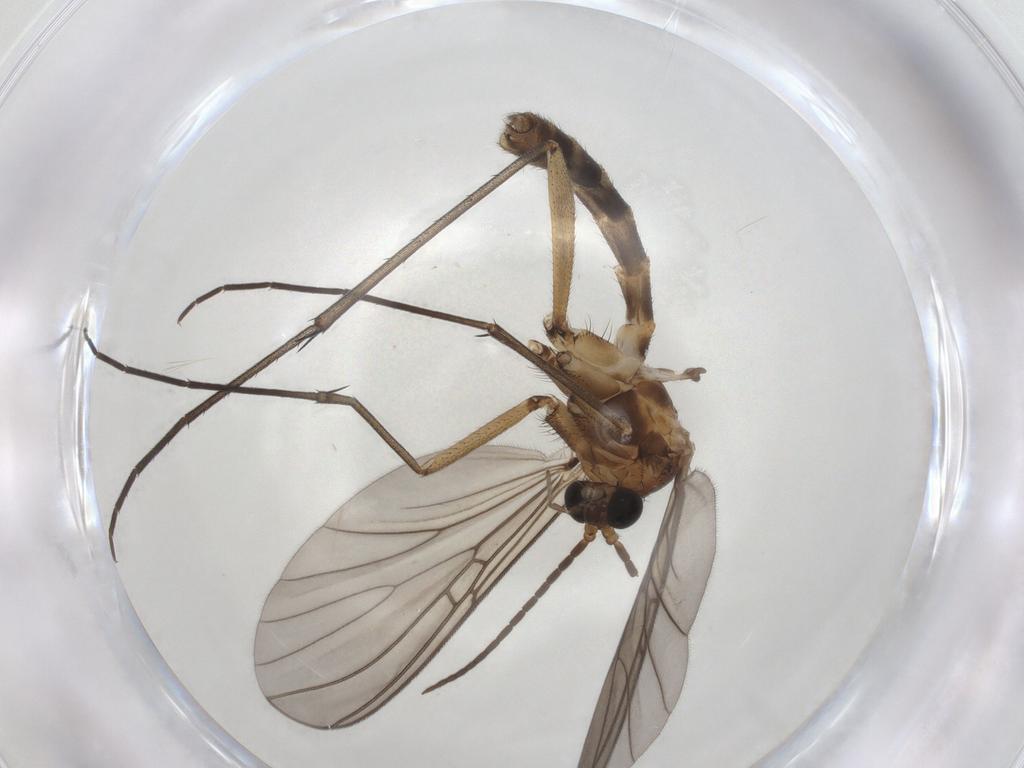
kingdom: Animalia
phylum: Arthropoda
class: Insecta
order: Diptera
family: Mycetophilidae
